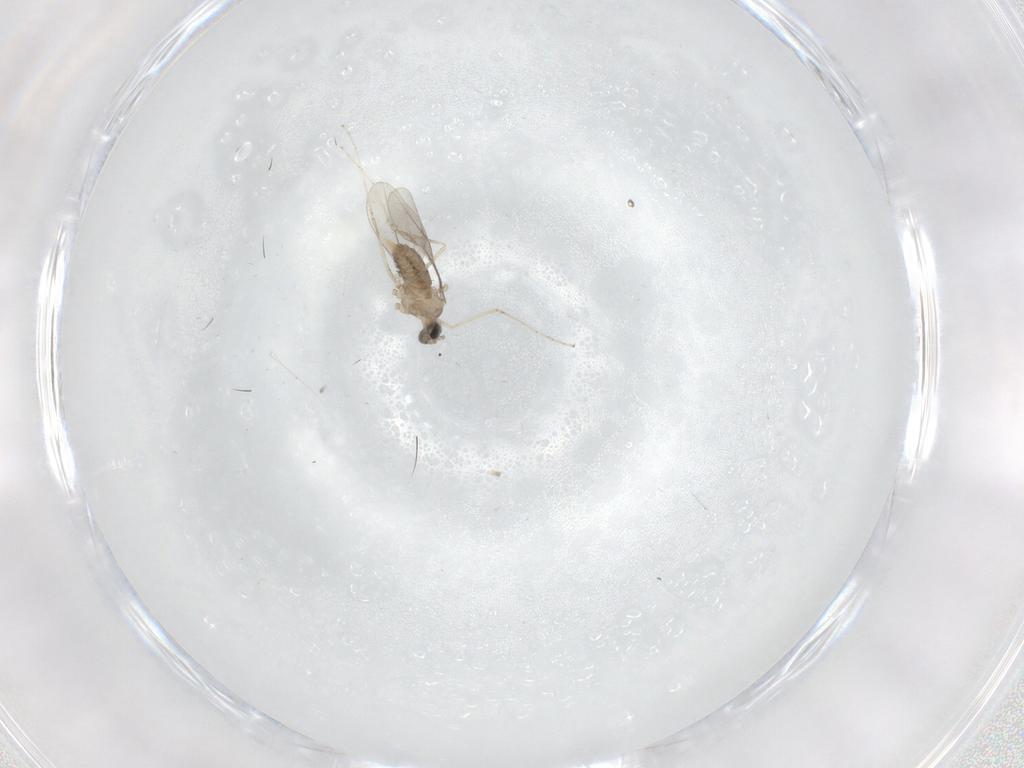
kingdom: Animalia
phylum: Arthropoda
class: Insecta
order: Diptera
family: Cecidomyiidae
